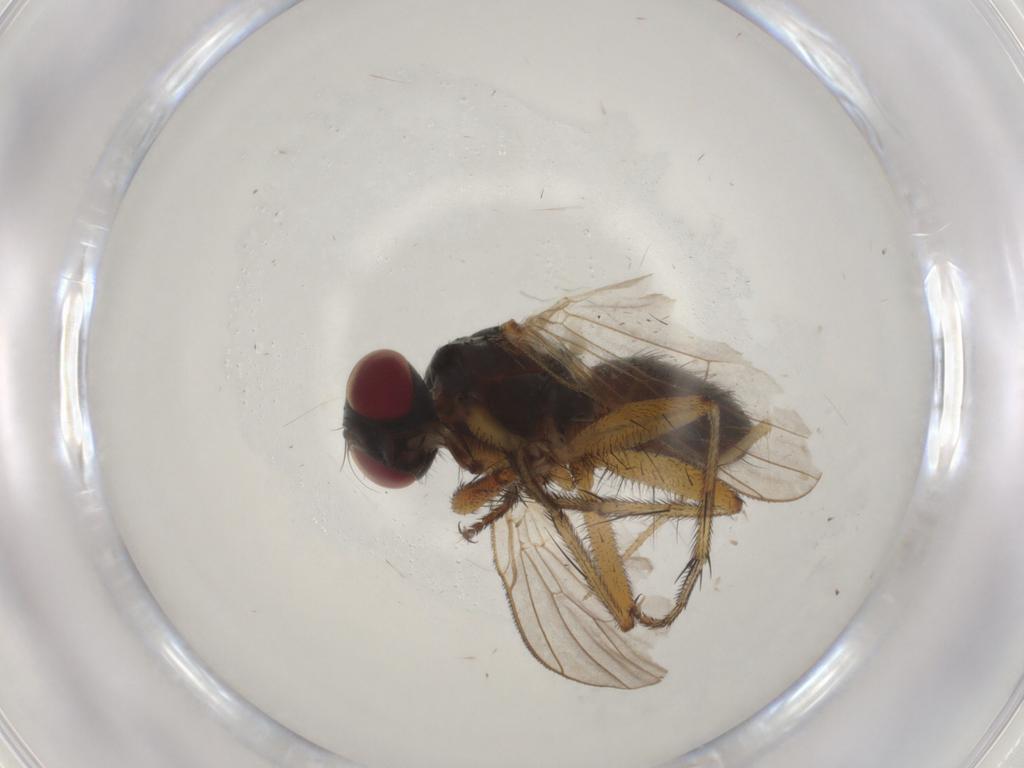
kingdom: Animalia
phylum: Arthropoda
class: Insecta
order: Diptera
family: Muscidae
